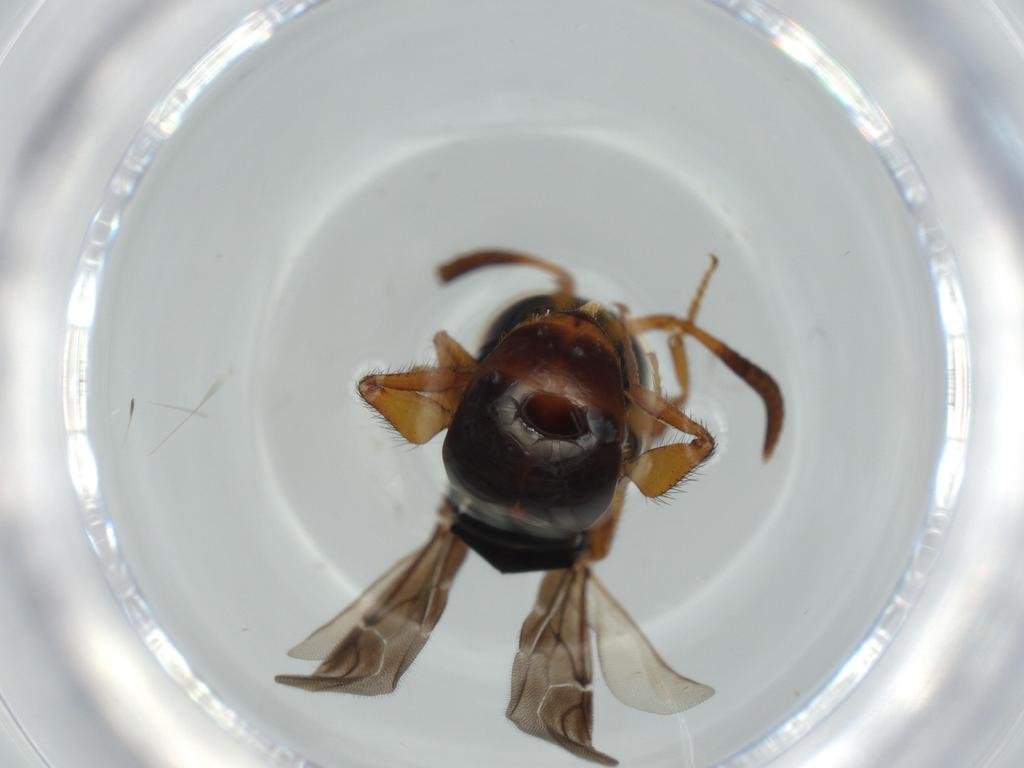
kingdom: Animalia
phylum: Arthropoda
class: Insecta
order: Hymenoptera
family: Chrysididae
